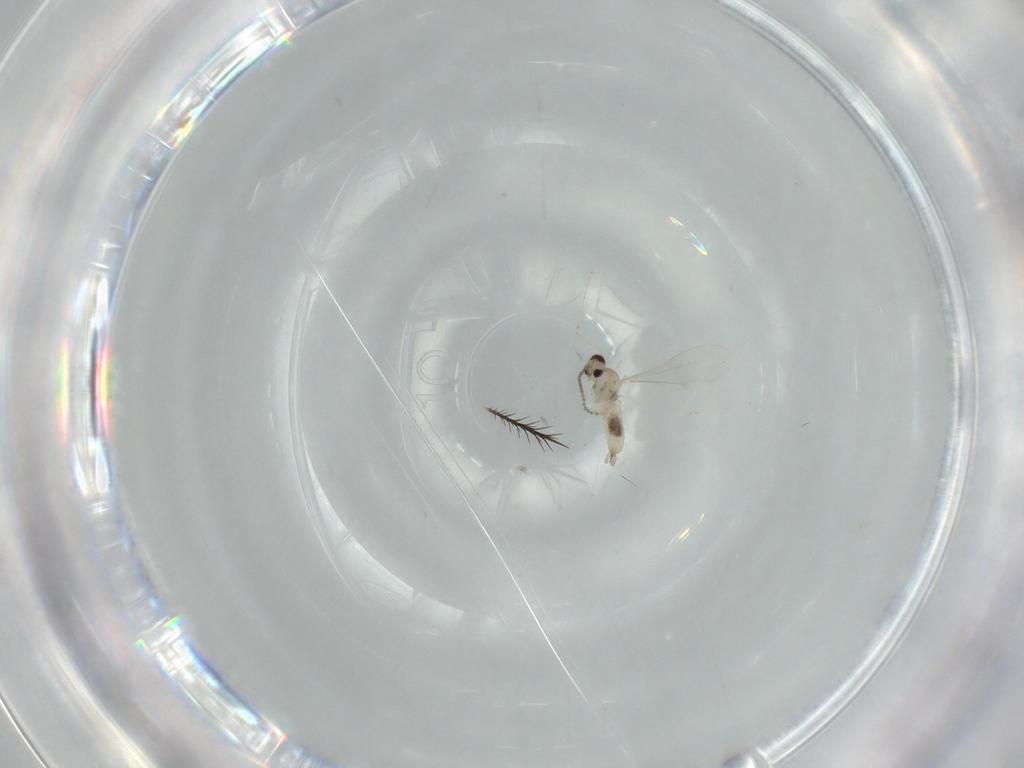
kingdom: Animalia
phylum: Arthropoda
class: Insecta
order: Diptera
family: Cecidomyiidae
